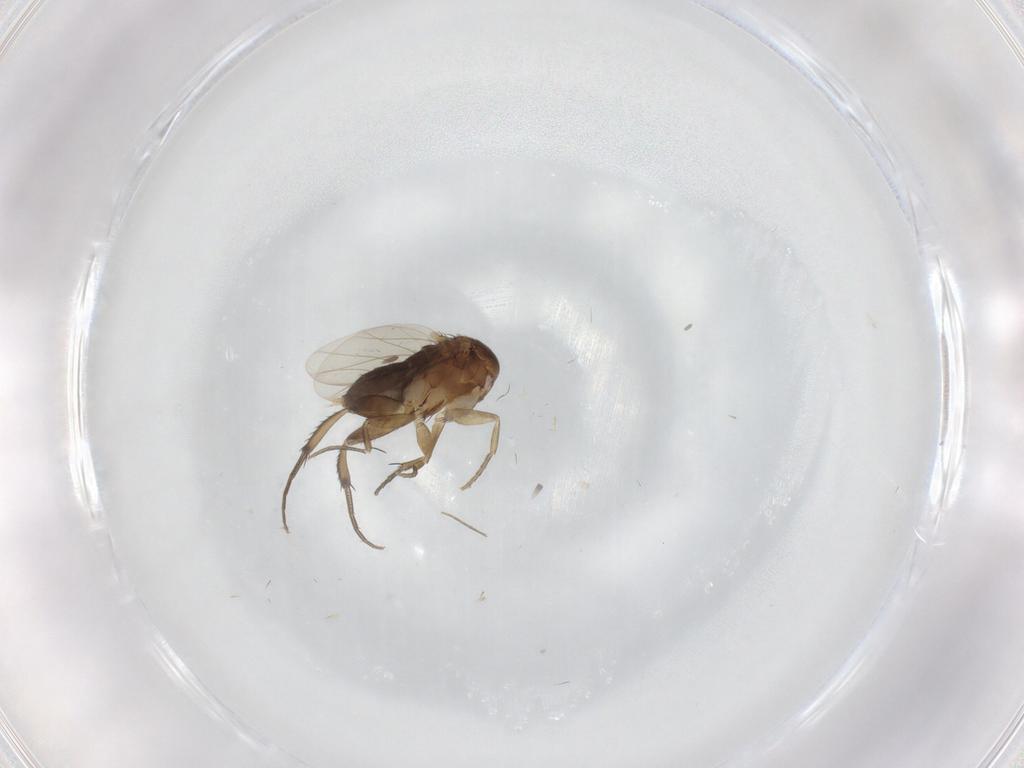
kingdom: Animalia
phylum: Arthropoda
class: Insecta
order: Diptera
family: Phoridae
